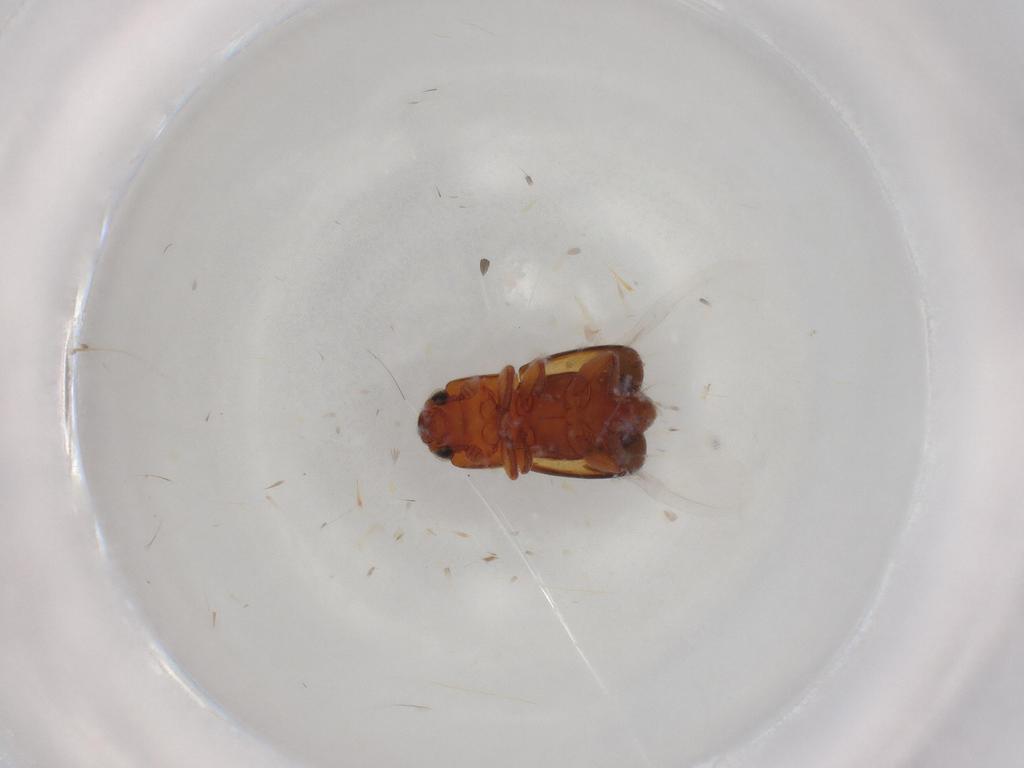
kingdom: Animalia
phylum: Arthropoda
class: Insecta
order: Coleoptera
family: Nitidulidae
